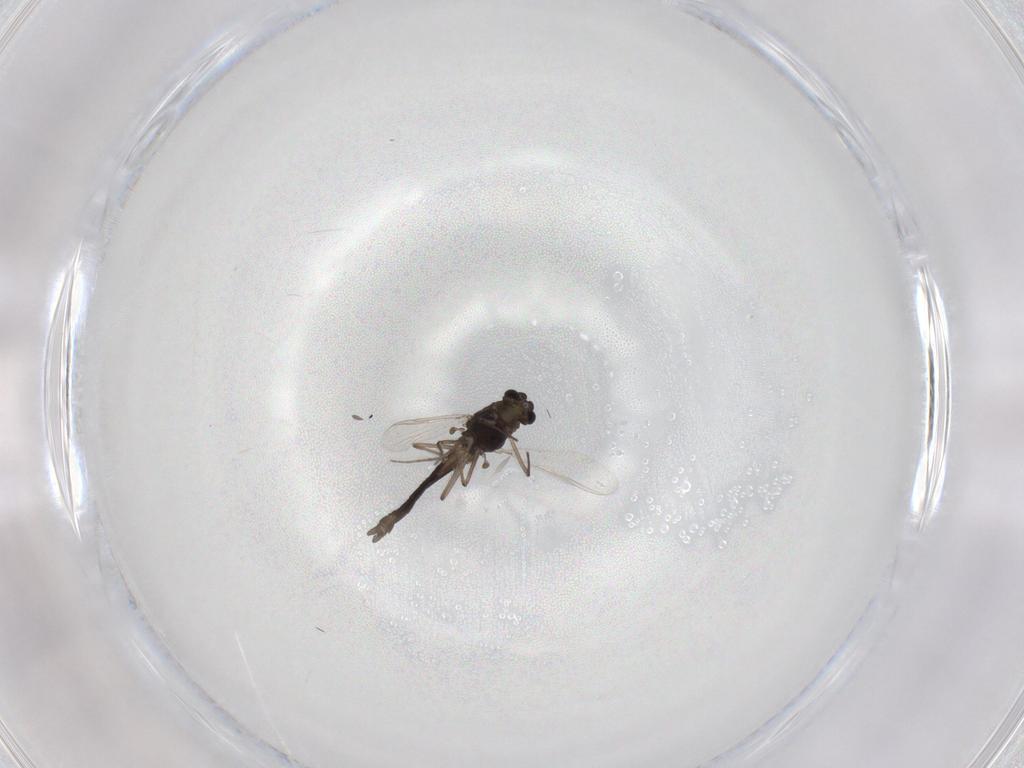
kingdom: Animalia
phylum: Arthropoda
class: Insecta
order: Diptera
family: Chironomidae
